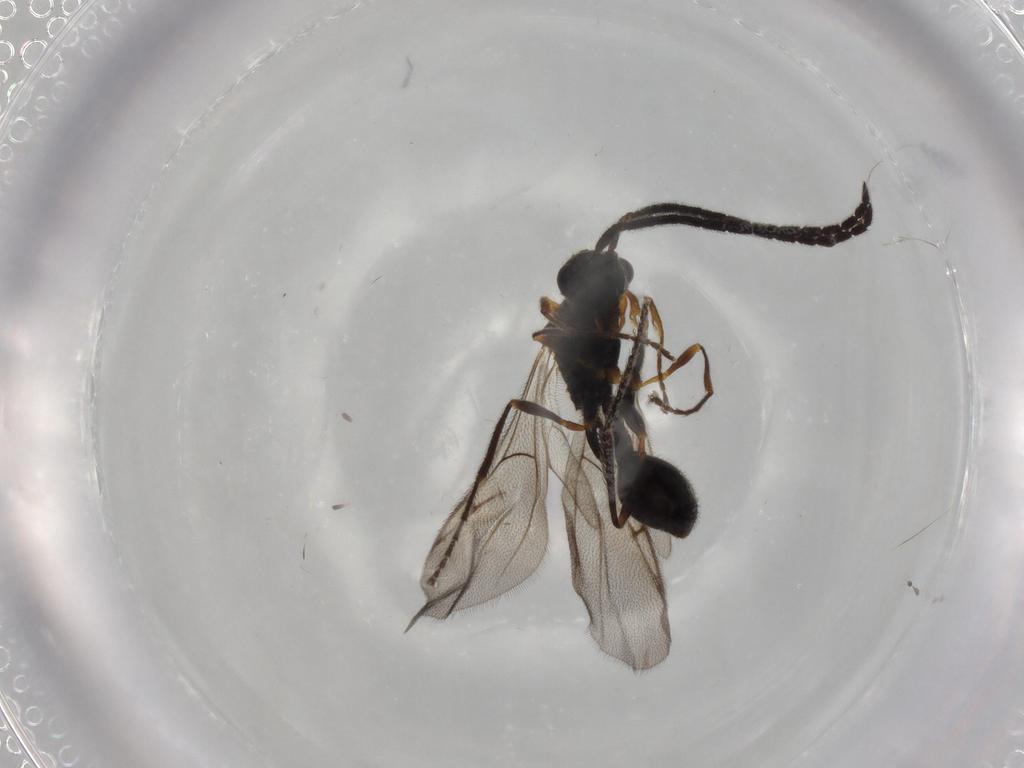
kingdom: Animalia
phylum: Arthropoda
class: Insecta
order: Hymenoptera
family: Diapriidae
